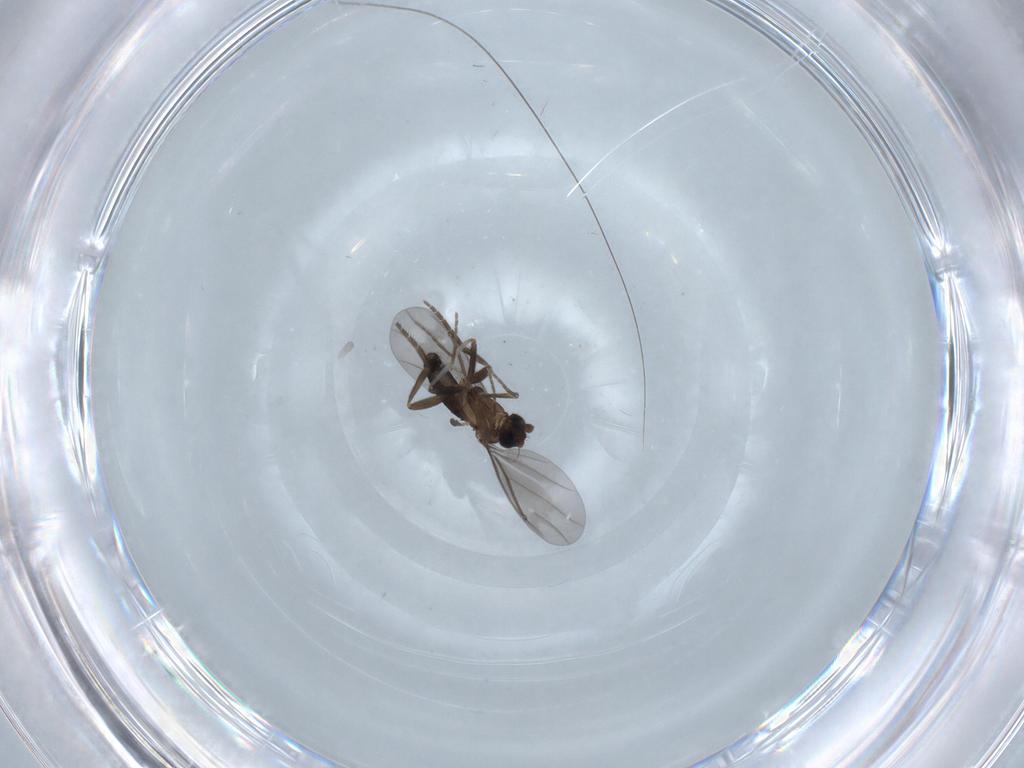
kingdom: Animalia
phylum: Arthropoda
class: Insecta
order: Diptera
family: Phoridae
